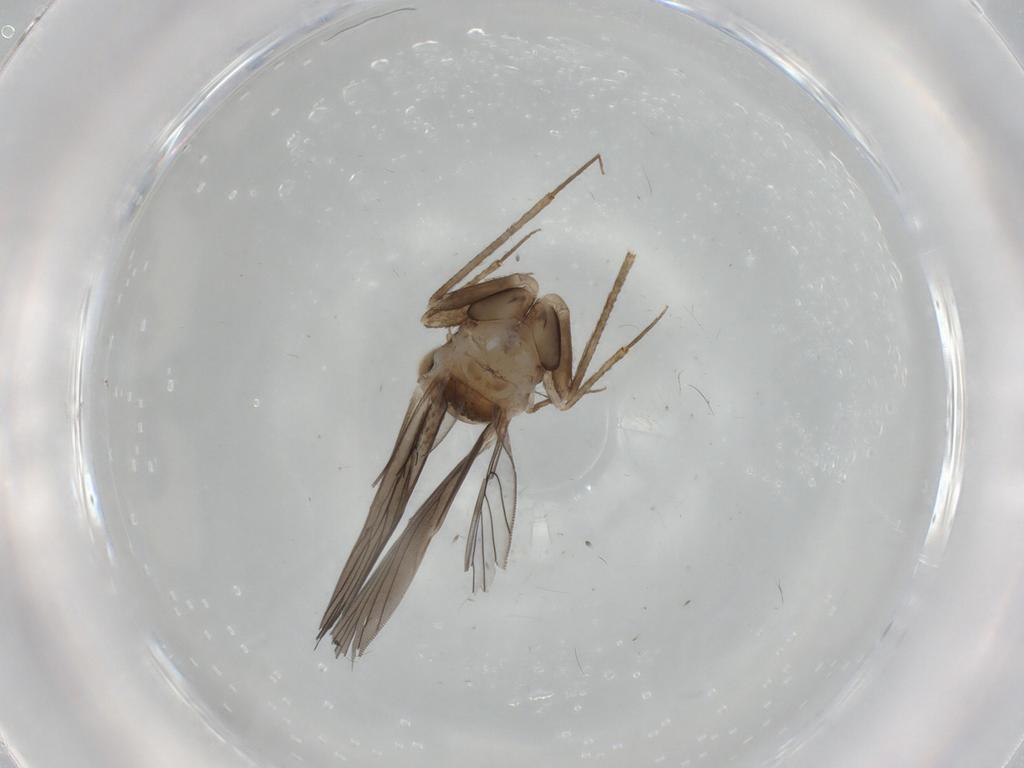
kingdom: Animalia
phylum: Arthropoda
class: Insecta
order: Psocodea
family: Lepidopsocidae
